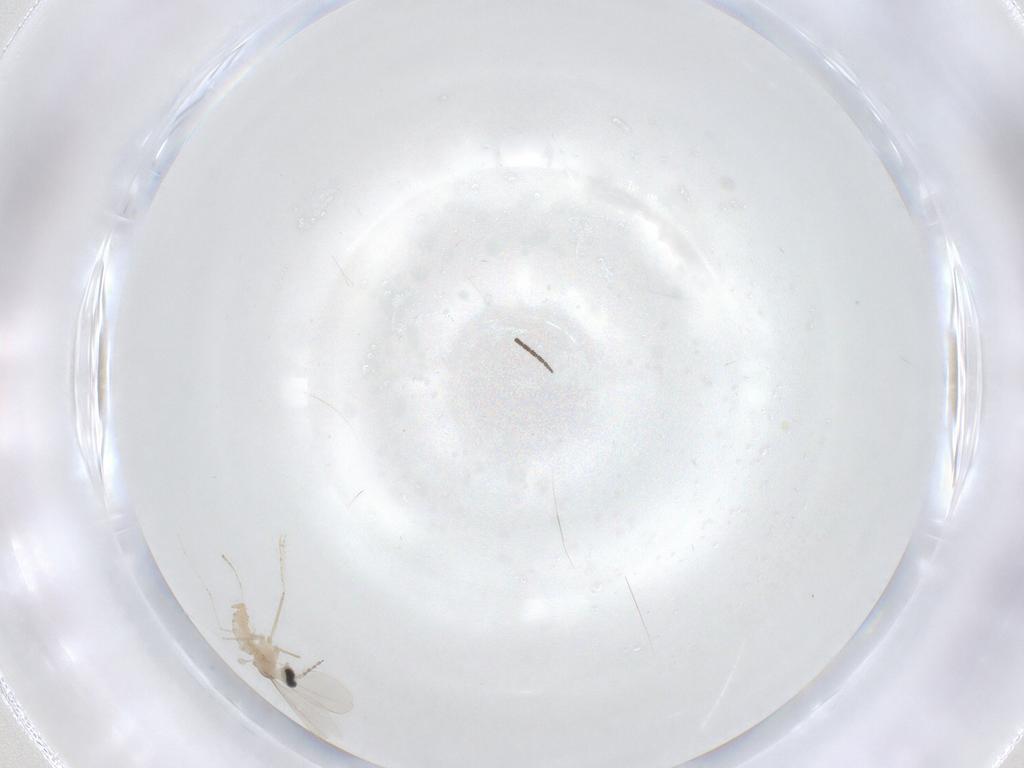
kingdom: Animalia
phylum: Arthropoda
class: Insecta
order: Diptera
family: Cecidomyiidae
